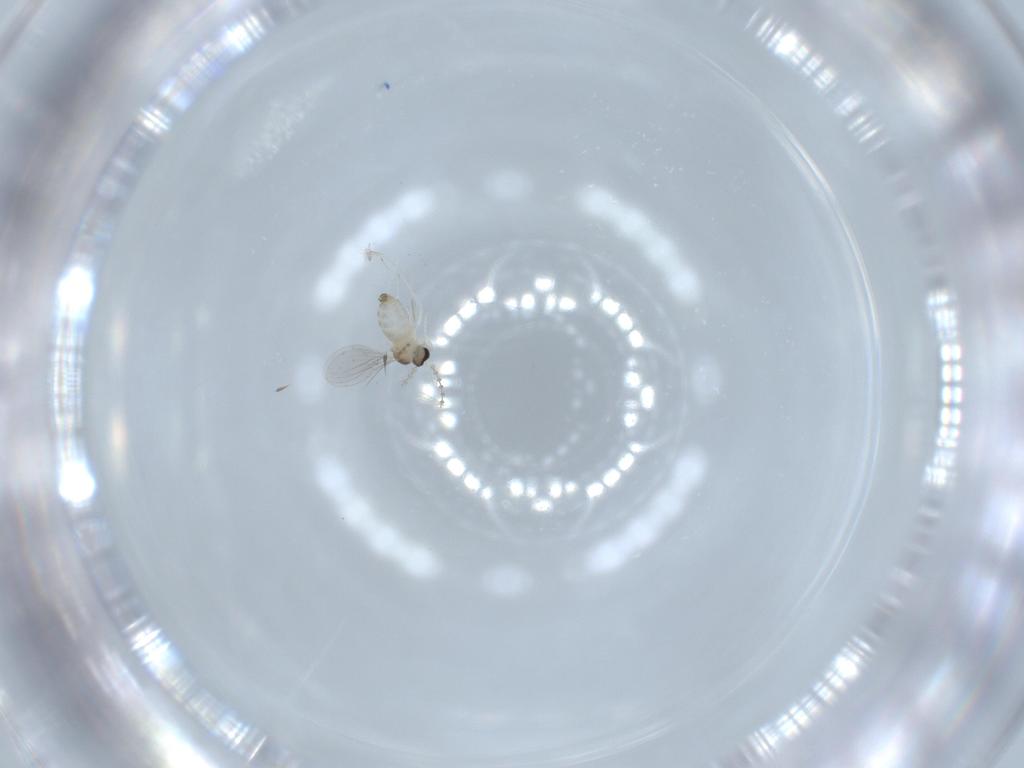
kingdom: Animalia
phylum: Arthropoda
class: Insecta
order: Diptera
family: Cecidomyiidae
